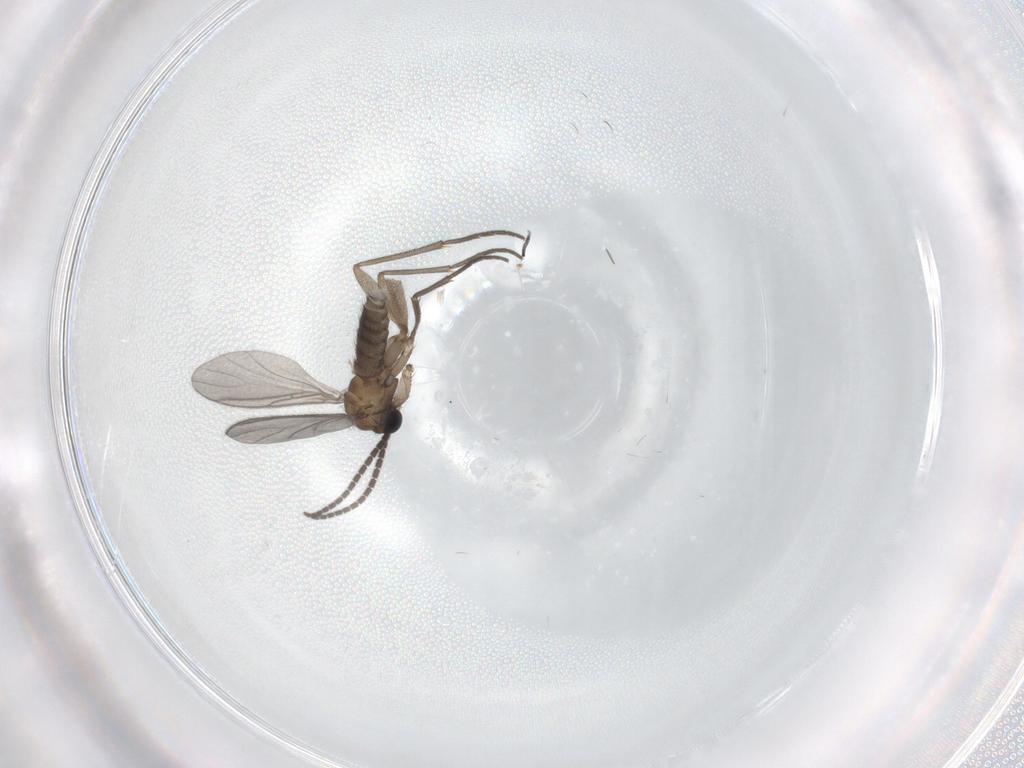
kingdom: Animalia
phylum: Arthropoda
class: Insecta
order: Diptera
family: Sciaridae
